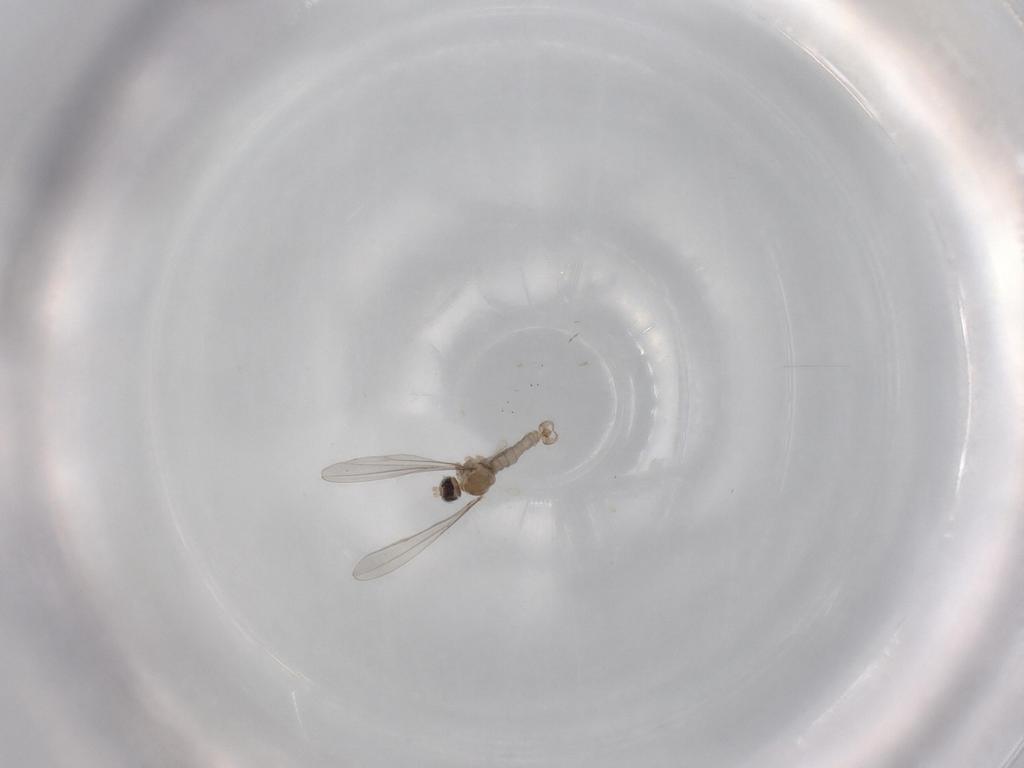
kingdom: Animalia
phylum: Arthropoda
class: Insecta
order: Diptera
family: Cecidomyiidae
